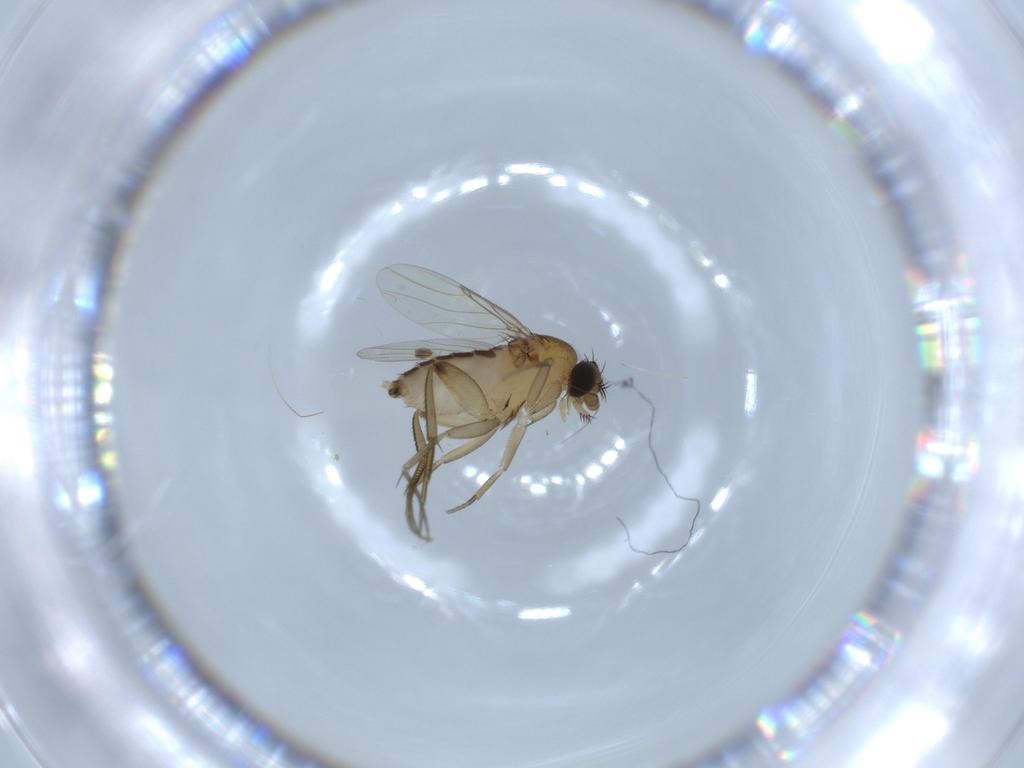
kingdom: Animalia
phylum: Arthropoda
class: Insecta
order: Diptera
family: Phoridae
